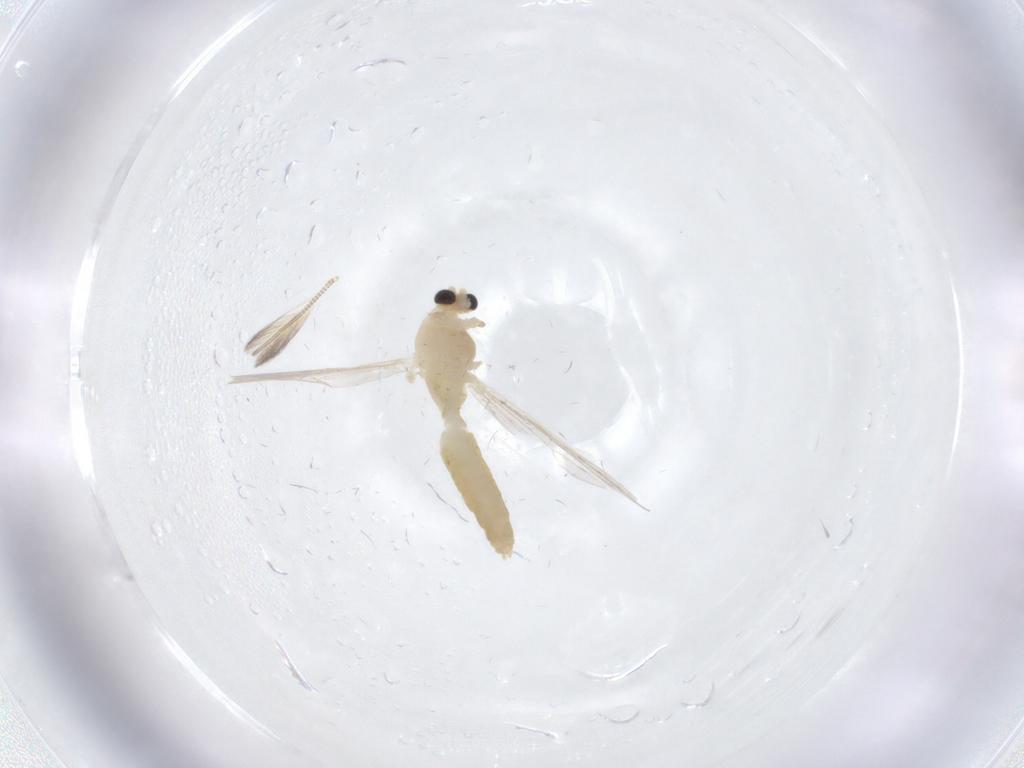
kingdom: Animalia
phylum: Arthropoda
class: Insecta
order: Diptera
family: Chironomidae
